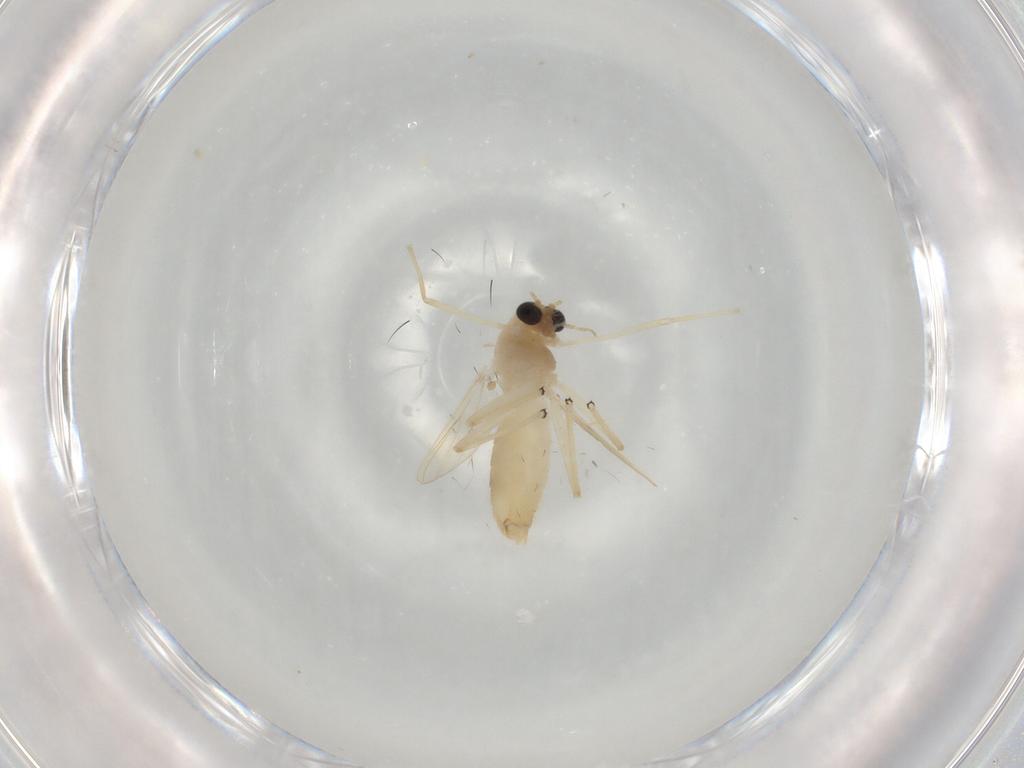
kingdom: Animalia
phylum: Arthropoda
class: Insecta
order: Diptera
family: Chironomidae
